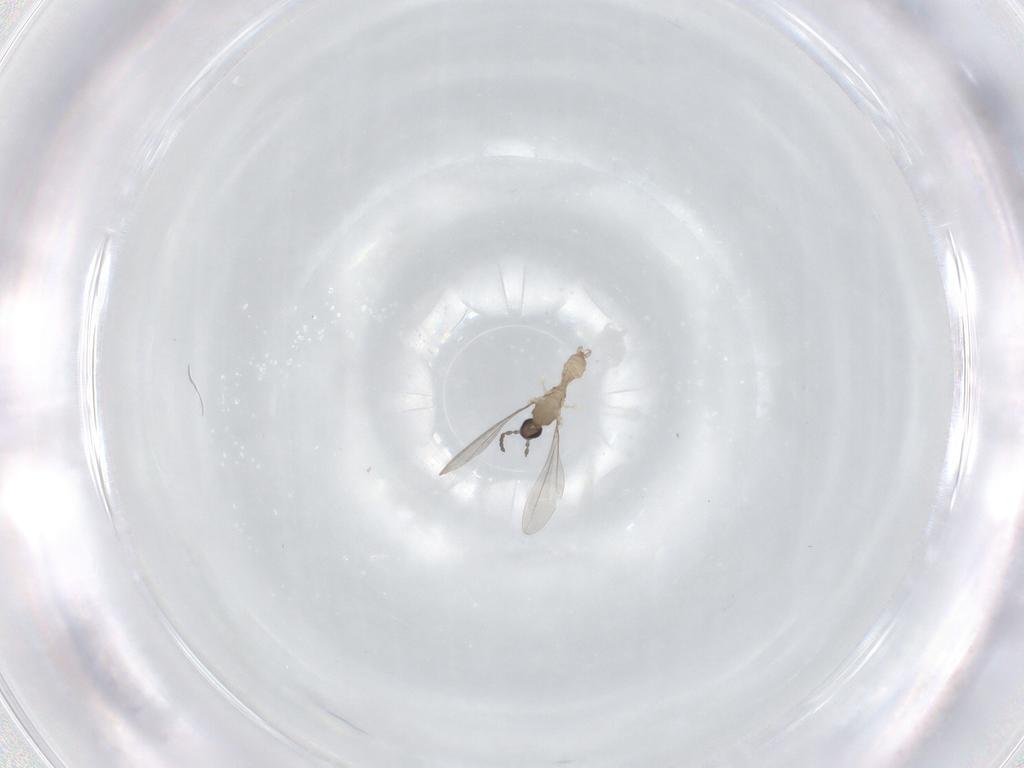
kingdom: Animalia
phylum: Arthropoda
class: Insecta
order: Diptera
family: Cecidomyiidae
